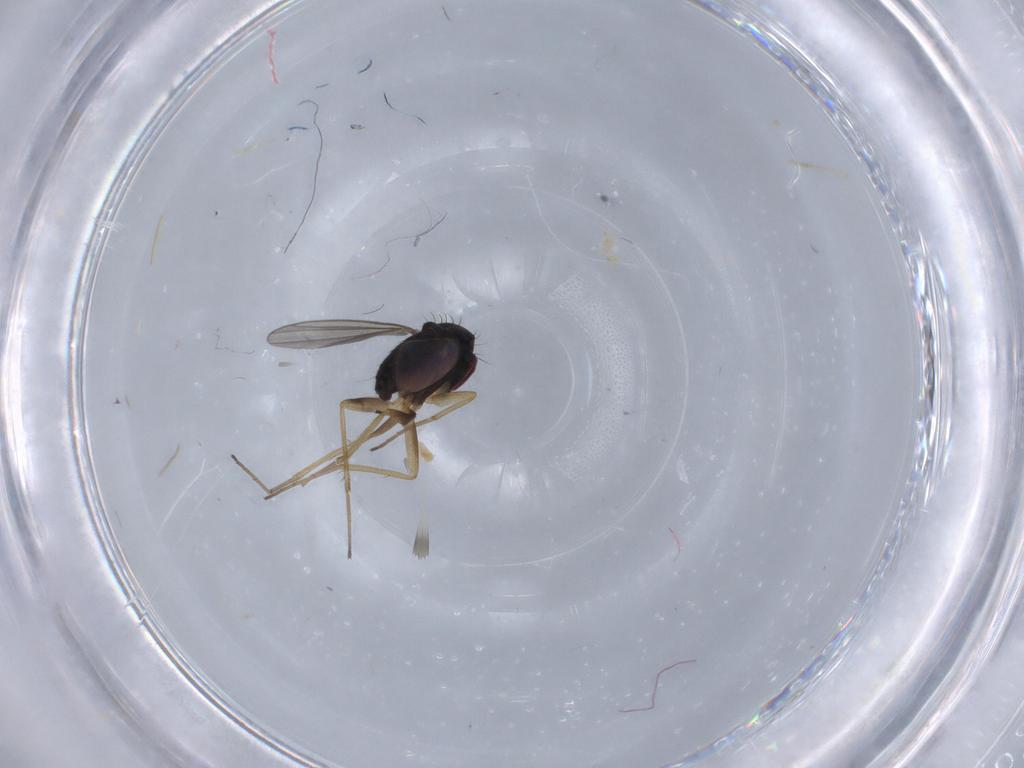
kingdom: Animalia
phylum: Arthropoda
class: Insecta
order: Diptera
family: Dolichopodidae
